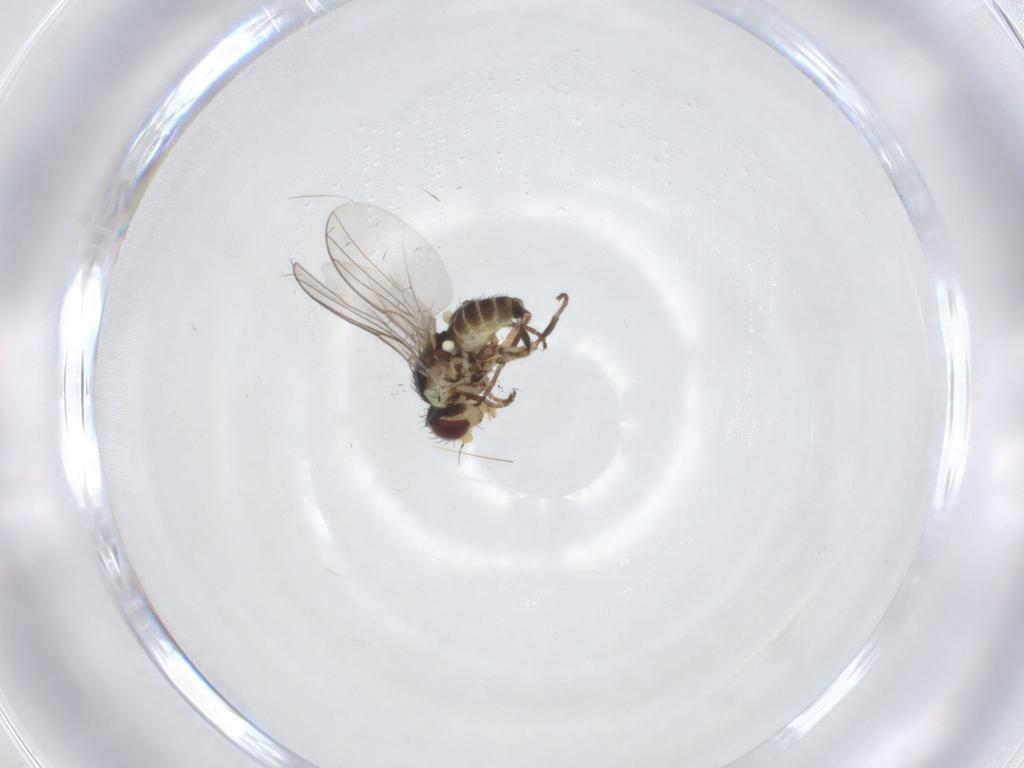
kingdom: Animalia
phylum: Arthropoda
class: Insecta
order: Diptera
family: Agromyzidae
